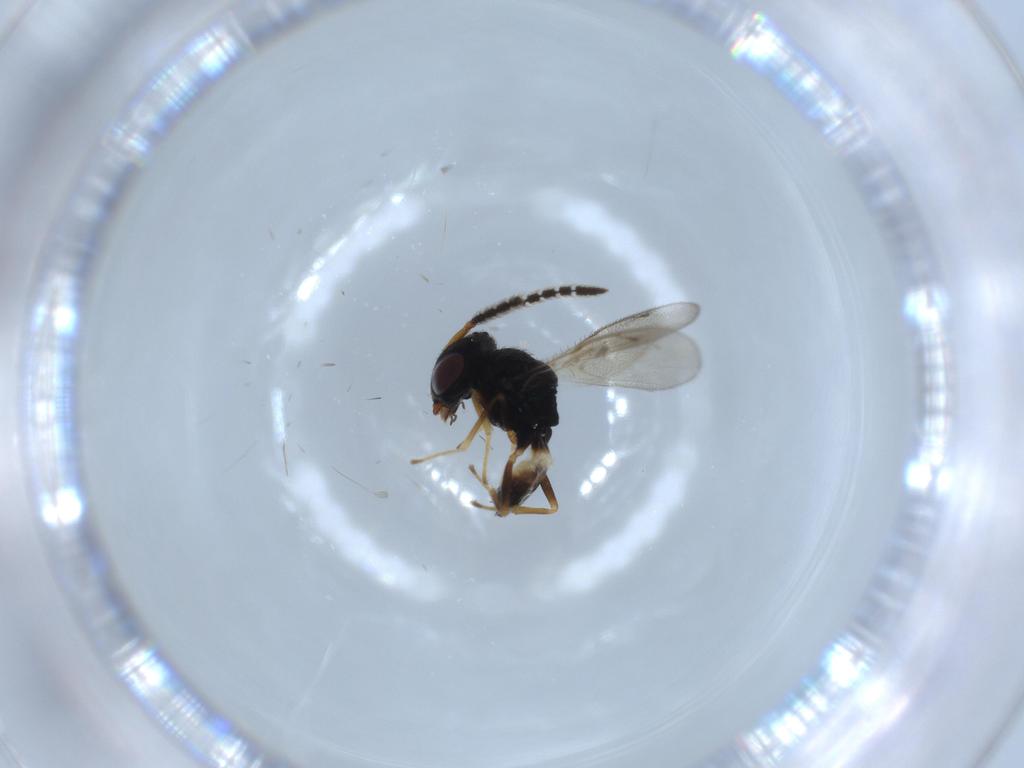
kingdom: Animalia
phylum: Arthropoda
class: Insecta
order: Hymenoptera
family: Pteromalidae
